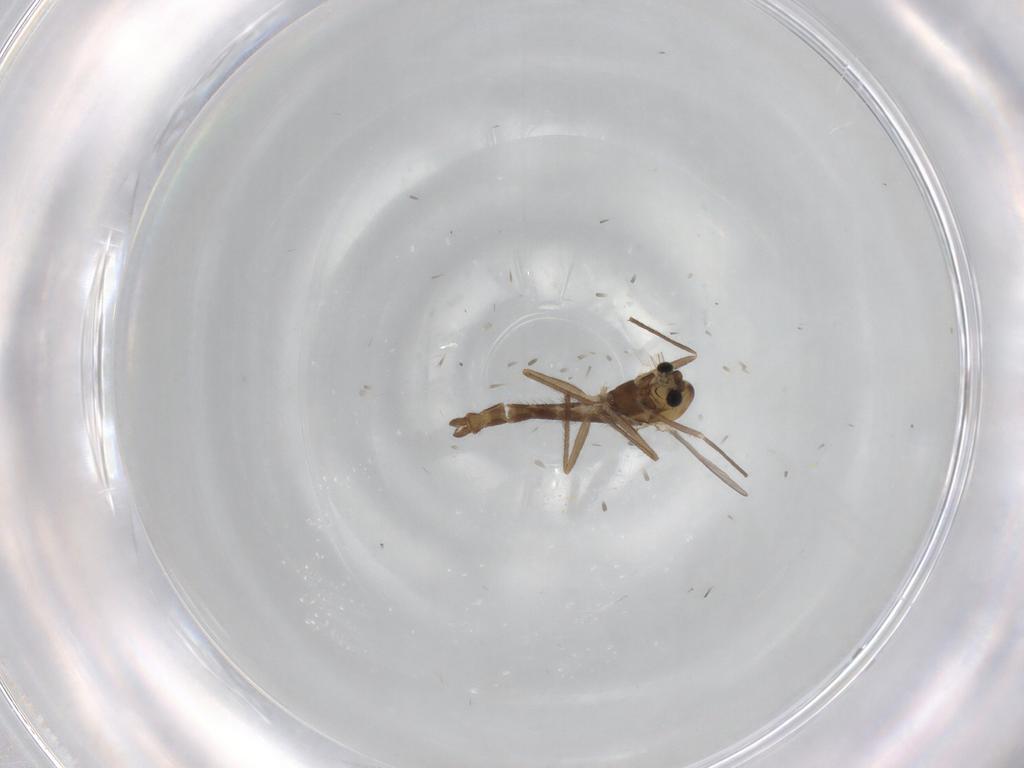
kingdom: Animalia
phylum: Arthropoda
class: Insecta
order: Diptera
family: Chironomidae
